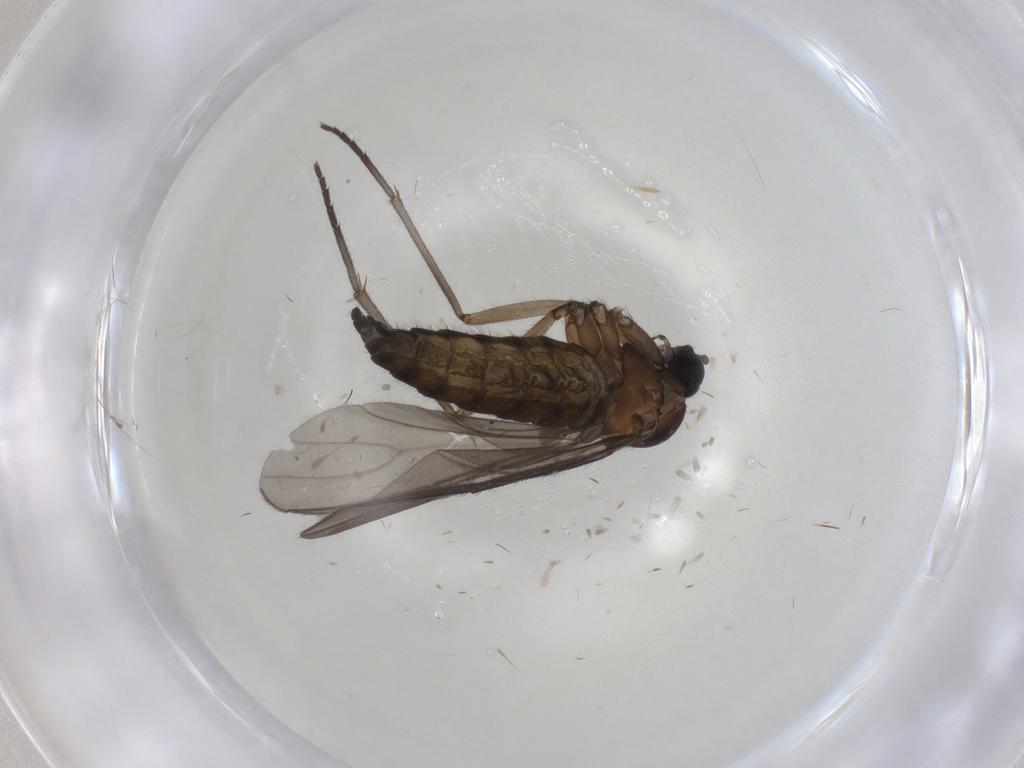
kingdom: Animalia
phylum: Arthropoda
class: Insecta
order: Diptera
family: Sciaridae
